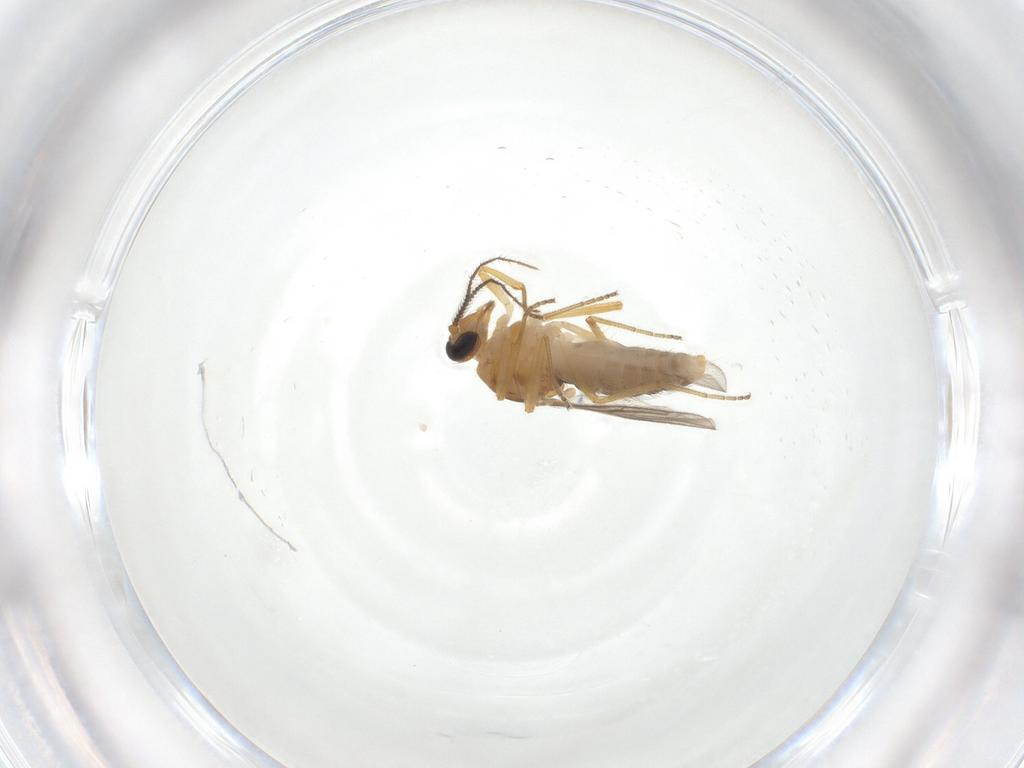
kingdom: Animalia
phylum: Arthropoda
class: Insecta
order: Diptera
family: Ceratopogonidae
